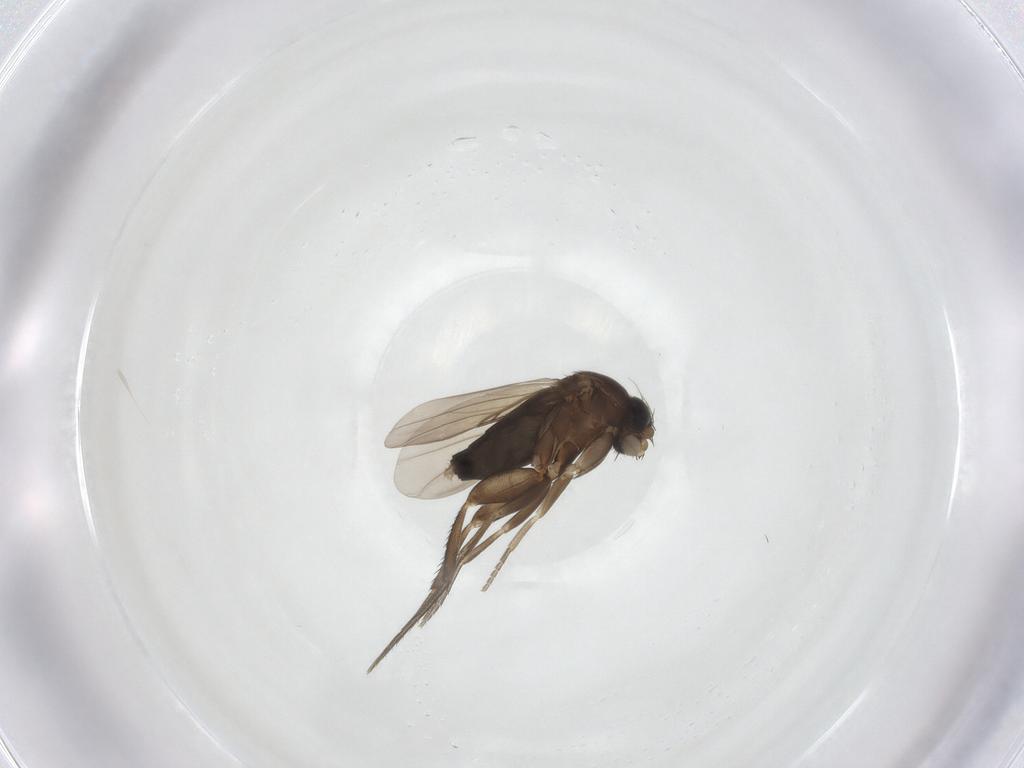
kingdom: Animalia
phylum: Arthropoda
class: Insecta
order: Diptera
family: Phoridae
